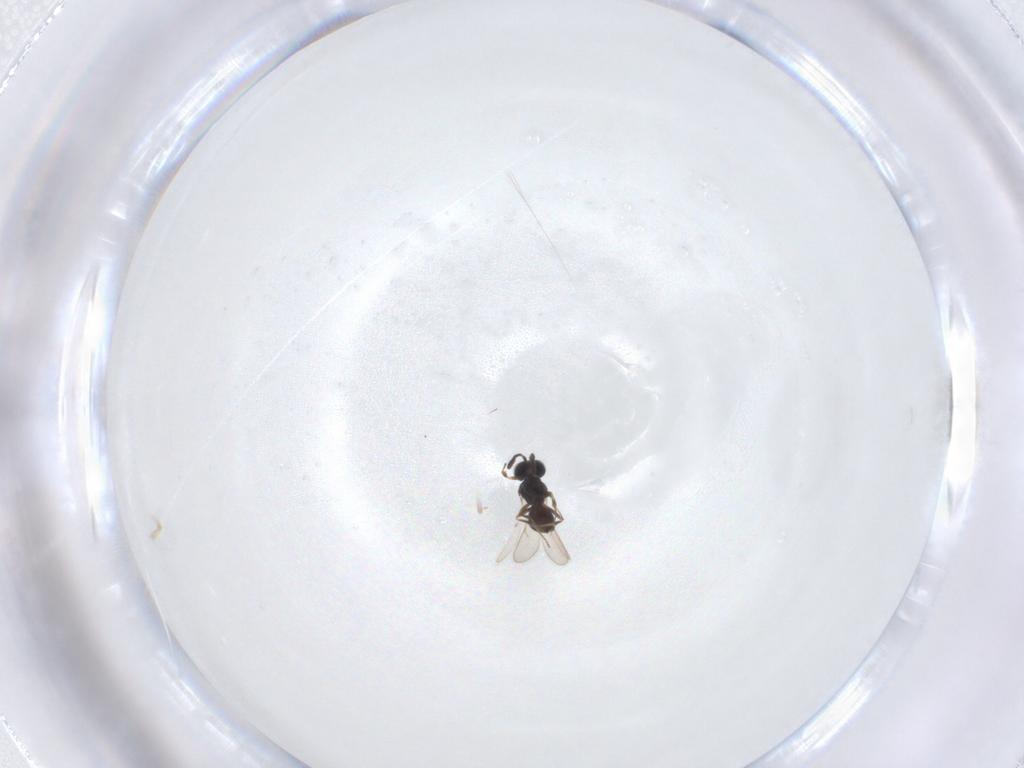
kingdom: Animalia
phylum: Arthropoda
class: Insecta
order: Hymenoptera
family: Scelionidae
